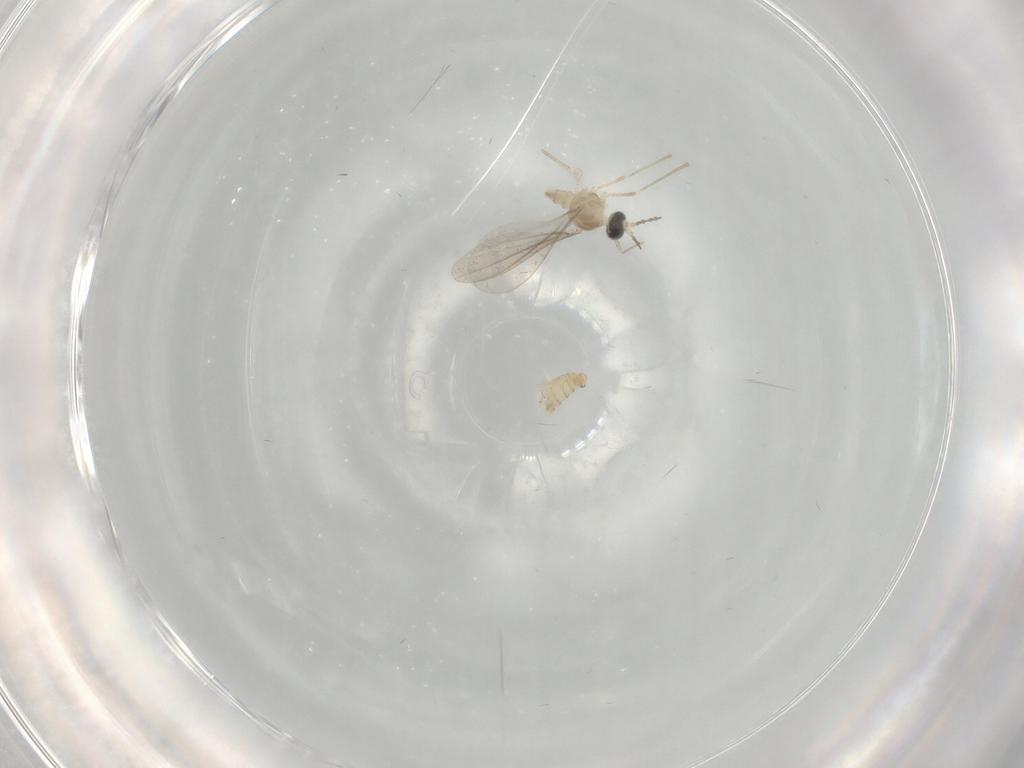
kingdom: Animalia
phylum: Arthropoda
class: Insecta
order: Diptera
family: Cecidomyiidae
